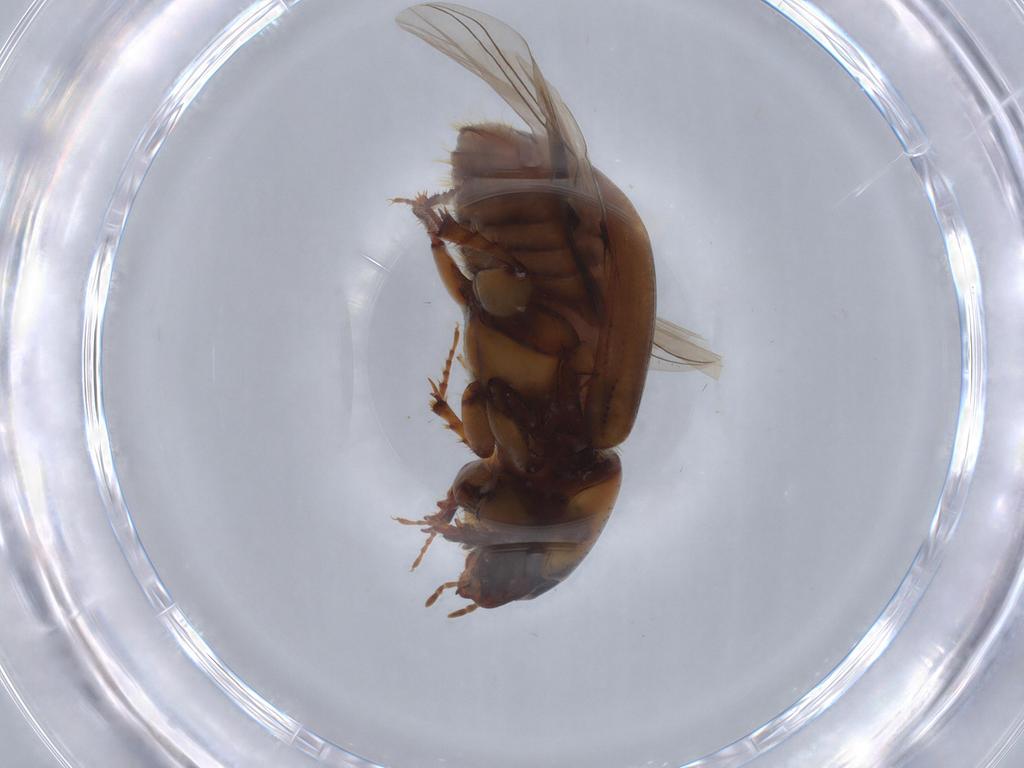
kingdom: Animalia
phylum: Arthropoda
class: Insecta
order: Coleoptera
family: Scarabaeidae
